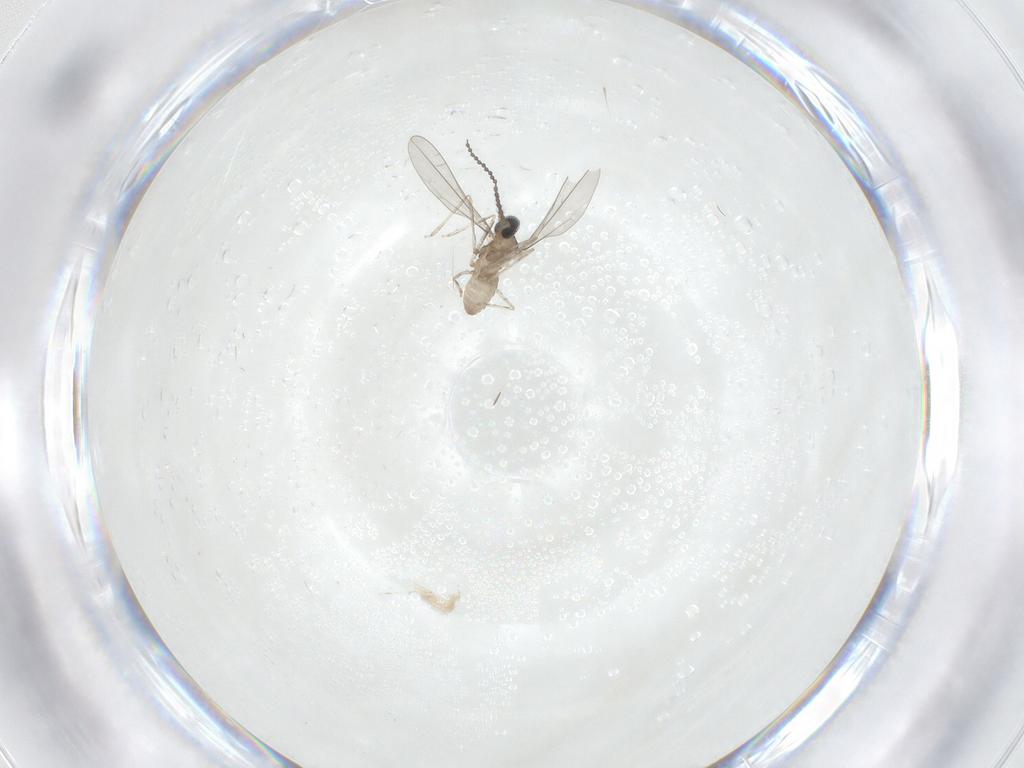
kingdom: Animalia
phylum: Arthropoda
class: Insecta
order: Diptera
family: Cecidomyiidae
